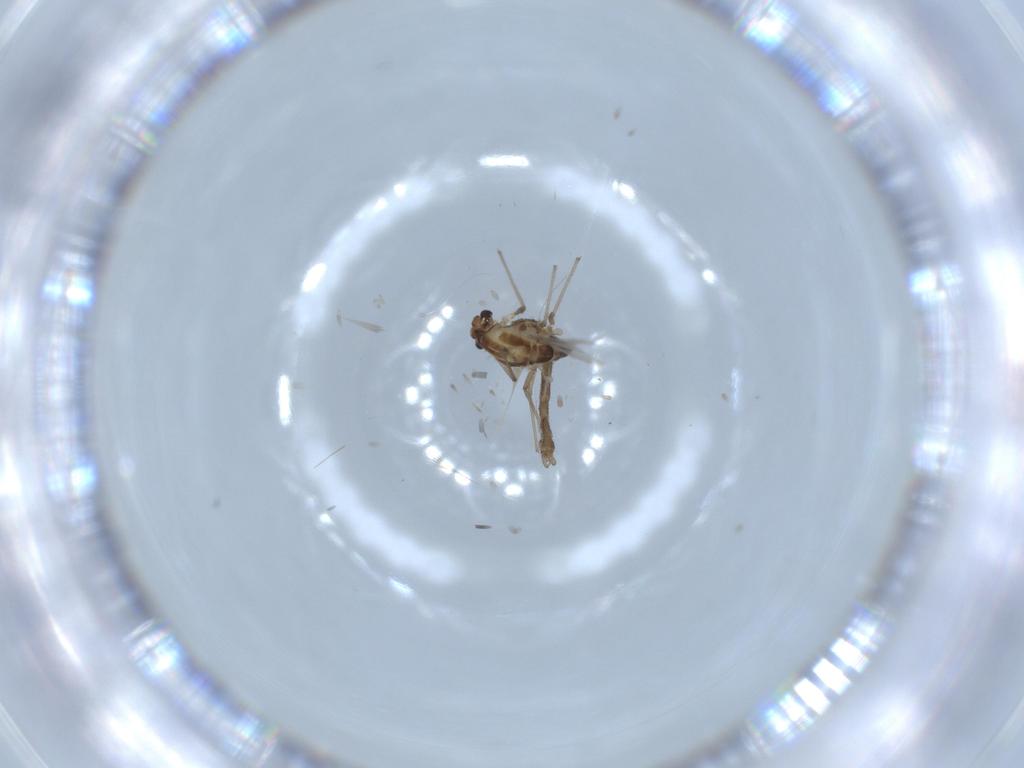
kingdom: Animalia
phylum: Arthropoda
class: Insecta
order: Diptera
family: Chironomidae
